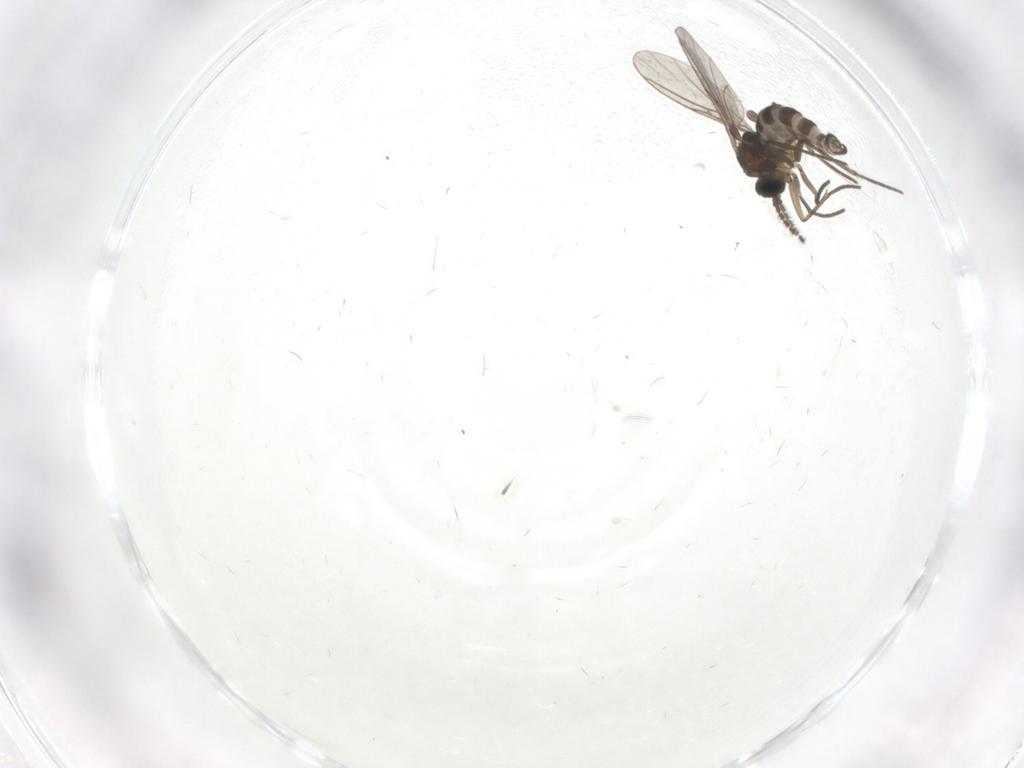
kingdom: Animalia
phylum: Arthropoda
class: Insecta
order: Diptera
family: Sciaridae
